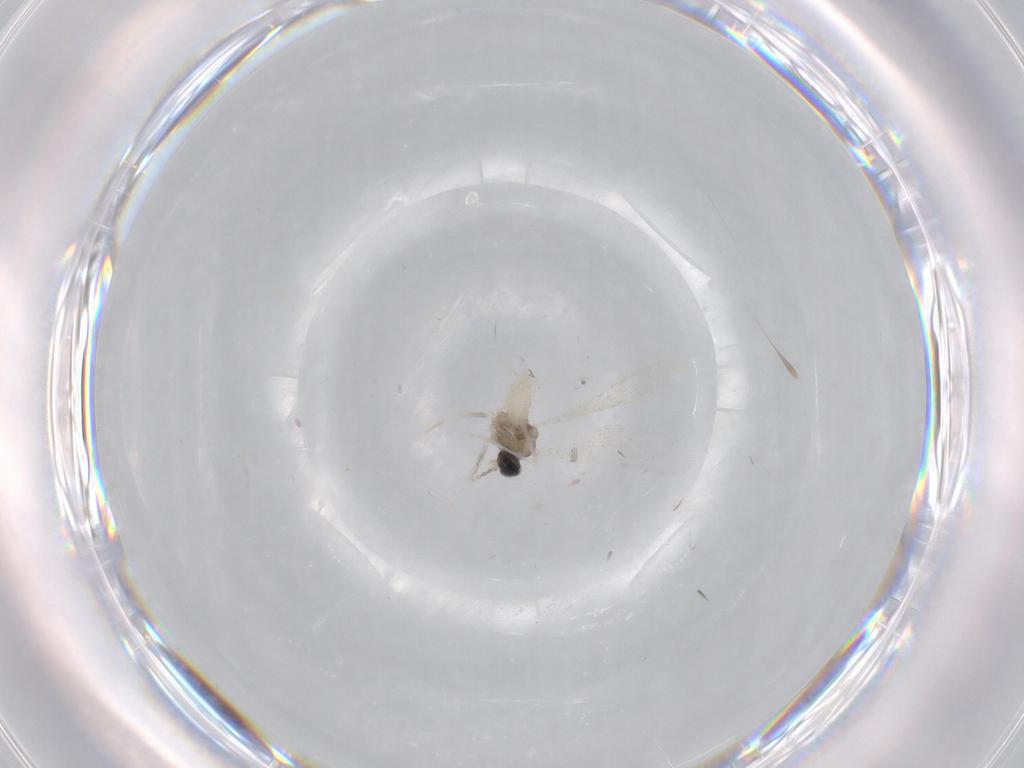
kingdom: Animalia
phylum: Arthropoda
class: Insecta
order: Diptera
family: Cecidomyiidae
